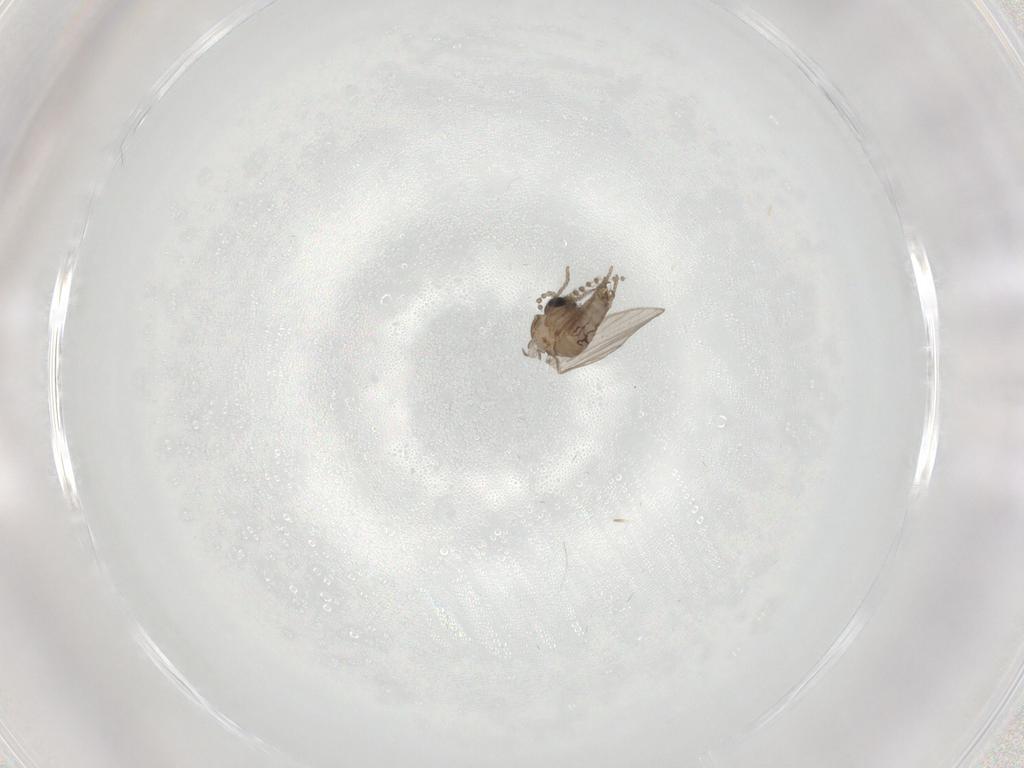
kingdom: Animalia
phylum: Arthropoda
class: Insecta
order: Diptera
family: Psychodidae
